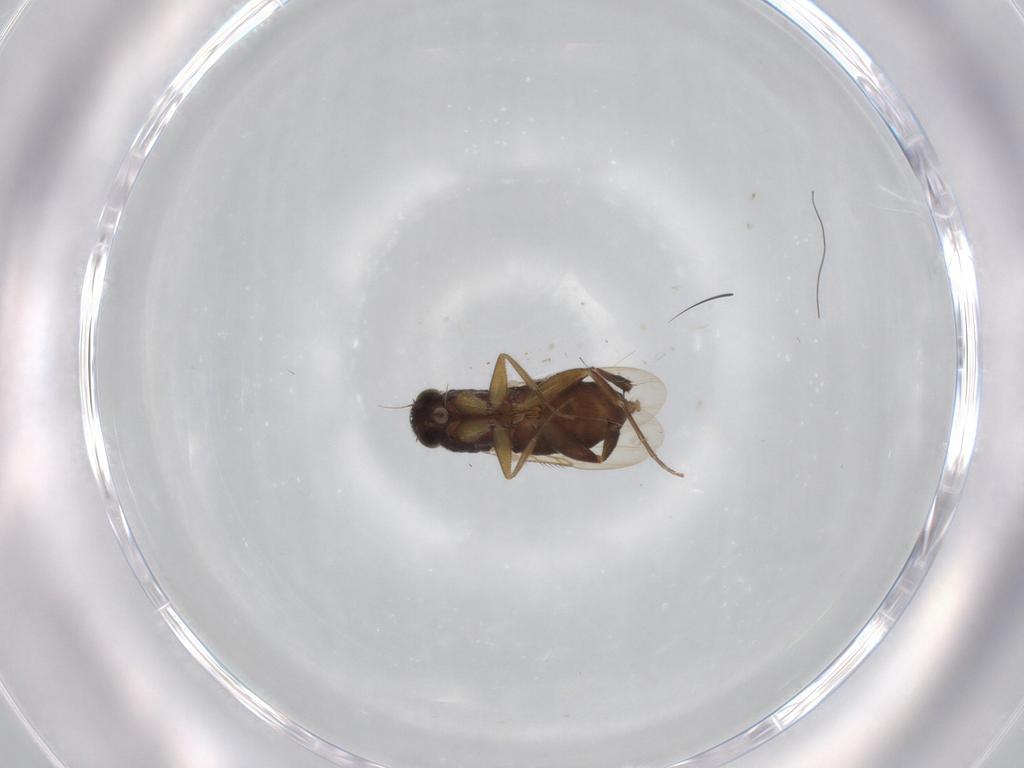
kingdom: Animalia
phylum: Arthropoda
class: Insecta
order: Diptera
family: Phoridae
